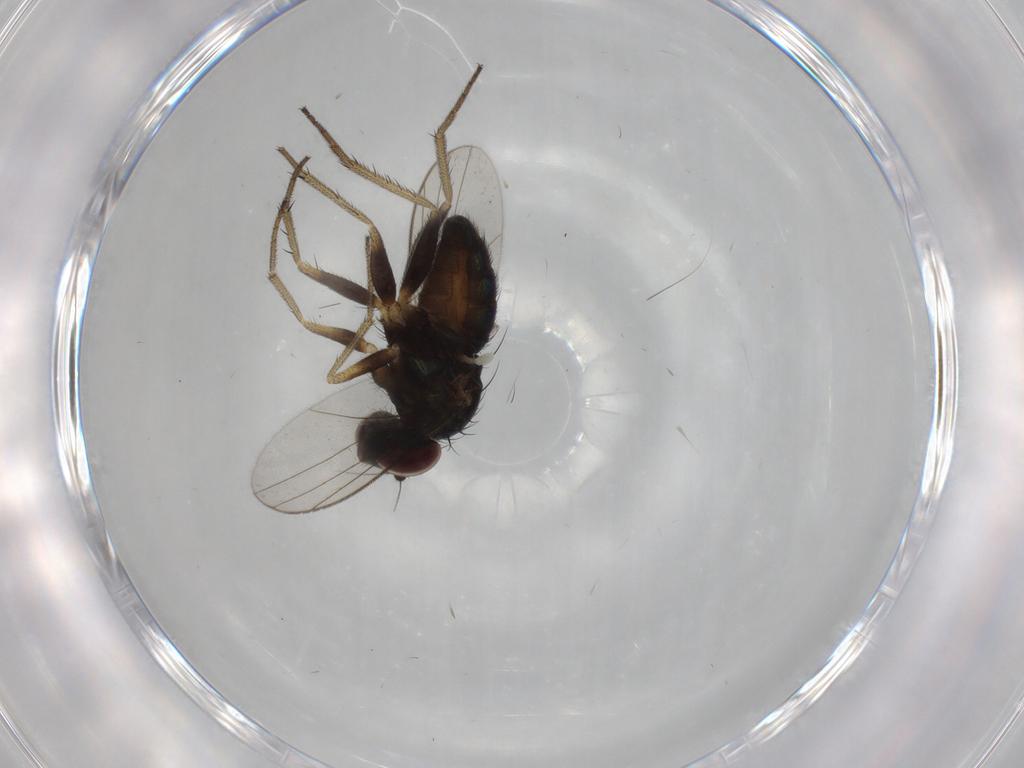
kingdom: Animalia
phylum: Arthropoda
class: Insecta
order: Diptera
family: Dolichopodidae
